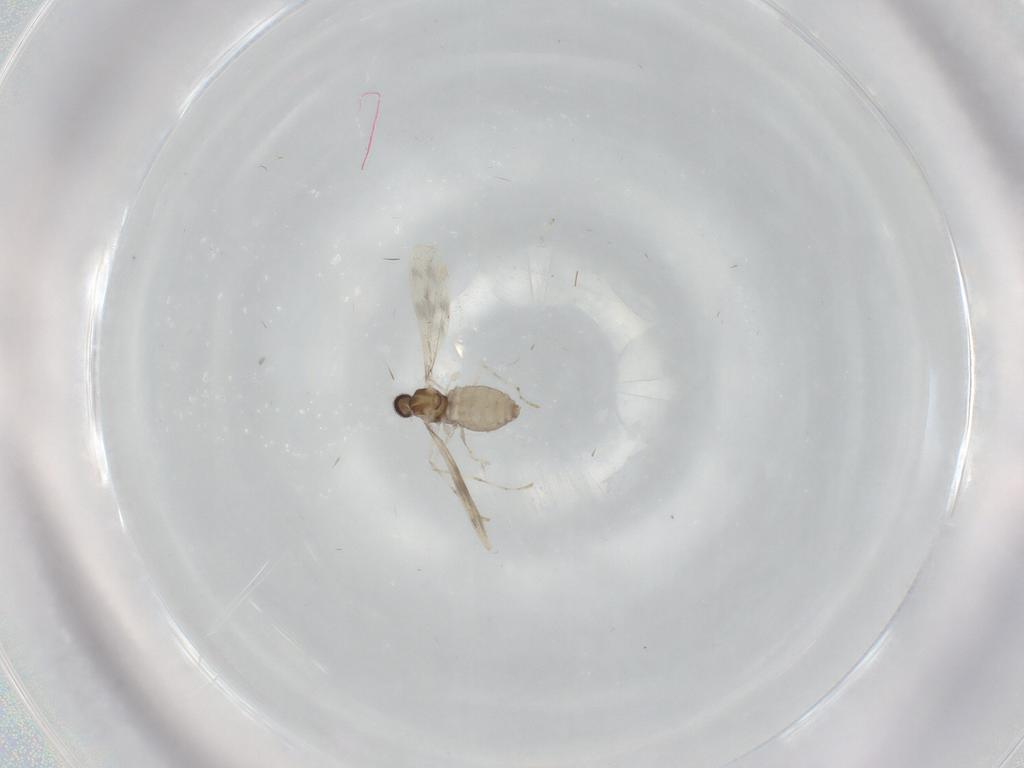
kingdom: Animalia
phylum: Arthropoda
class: Insecta
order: Diptera
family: Cecidomyiidae
